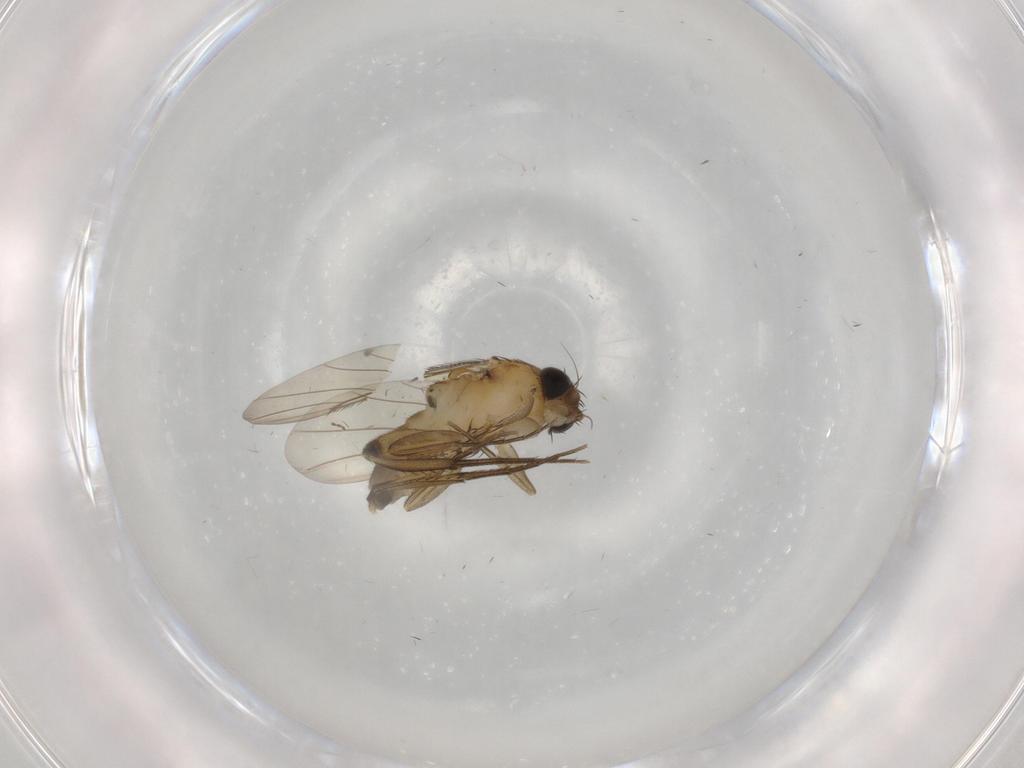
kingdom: Animalia
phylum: Arthropoda
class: Insecta
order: Diptera
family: Phoridae
